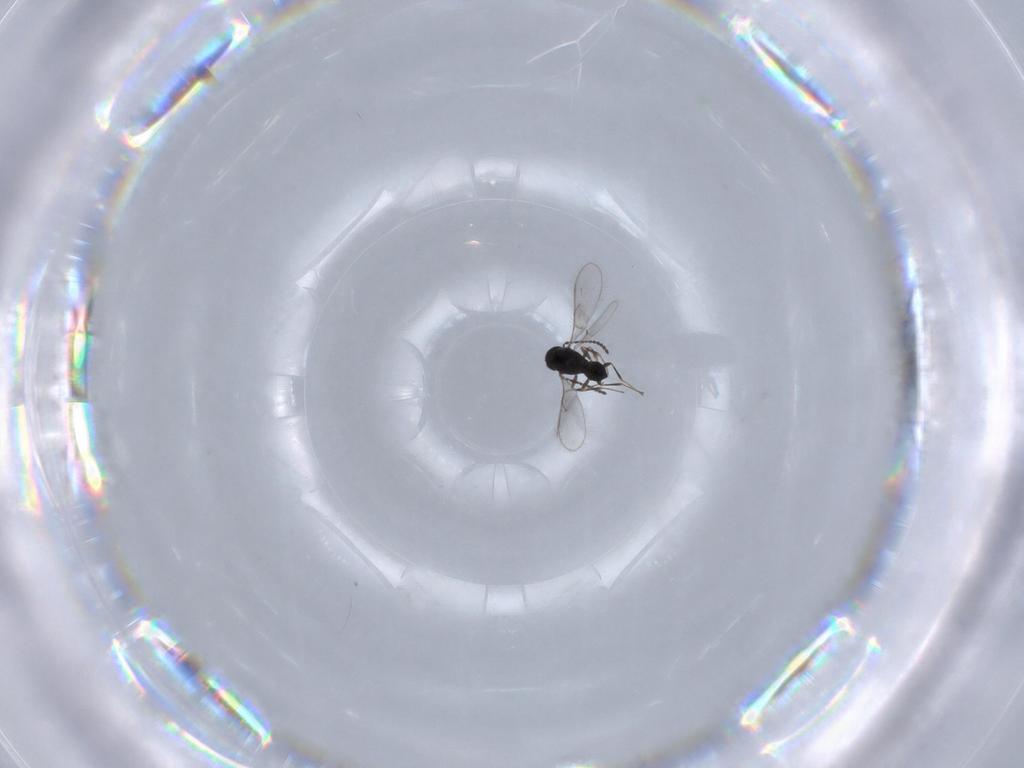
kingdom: Animalia
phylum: Arthropoda
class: Insecta
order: Hymenoptera
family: Scelionidae
